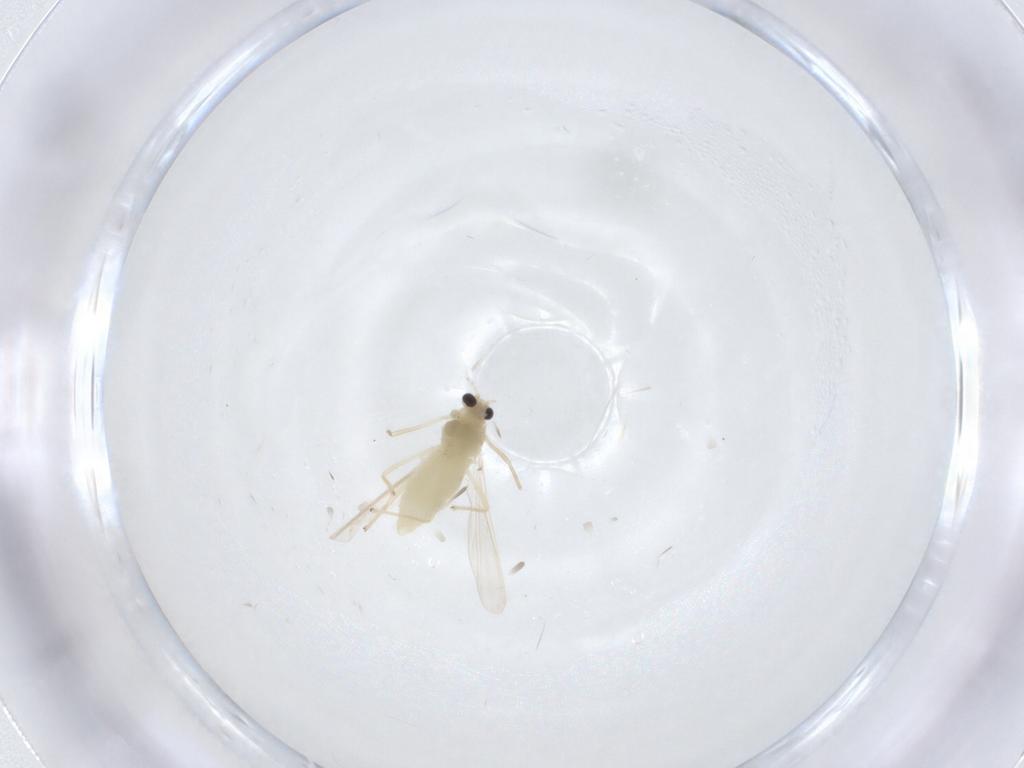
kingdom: Animalia
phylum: Arthropoda
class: Insecta
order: Diptera
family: Chironomidae
